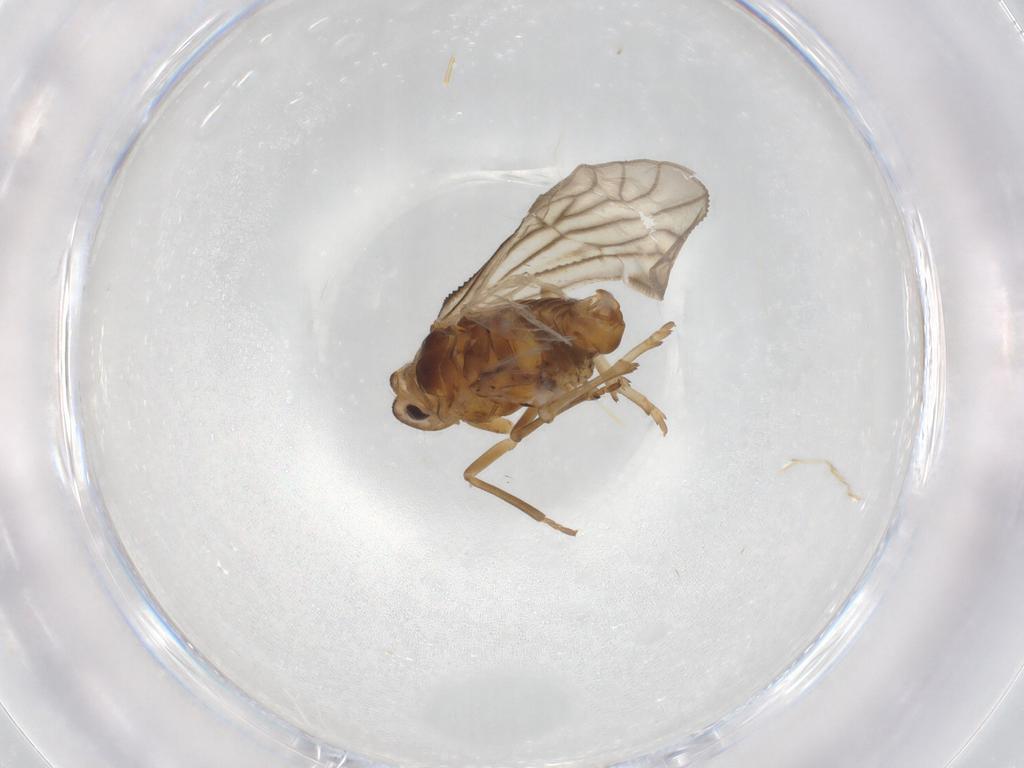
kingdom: Animalia
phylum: Arthropoda
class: Insecta
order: Hemiptera
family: Meenoplidae
